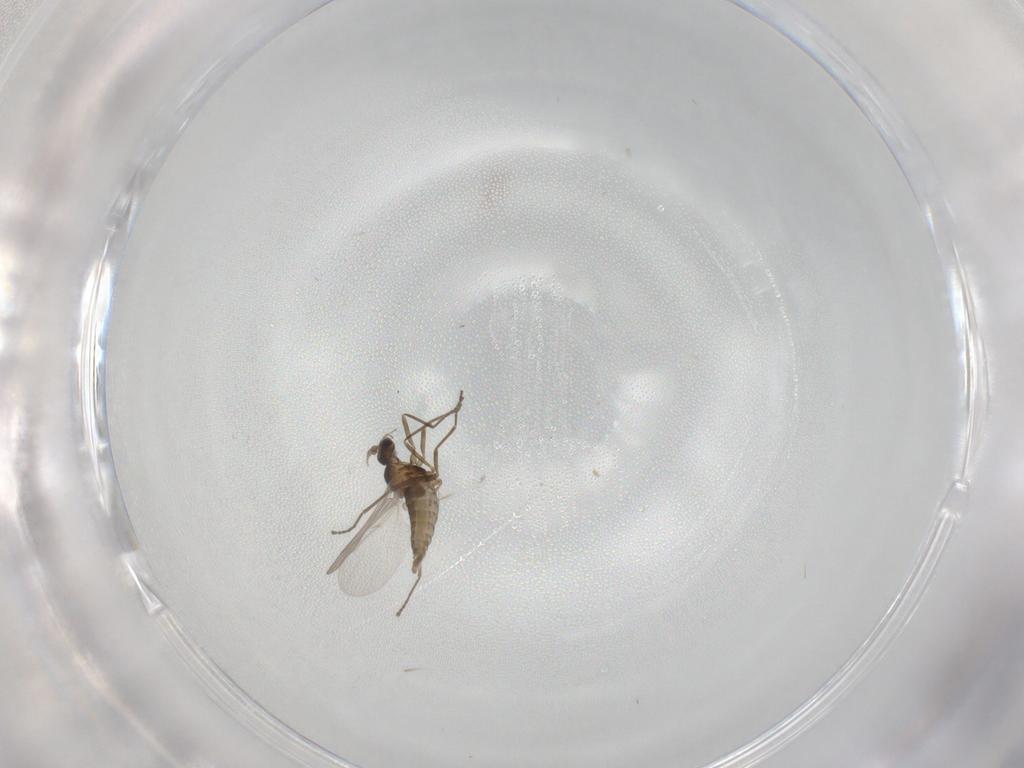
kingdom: Animalia
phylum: Arthropoda
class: Insecta
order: Diptera
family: Cecidomyiidae
